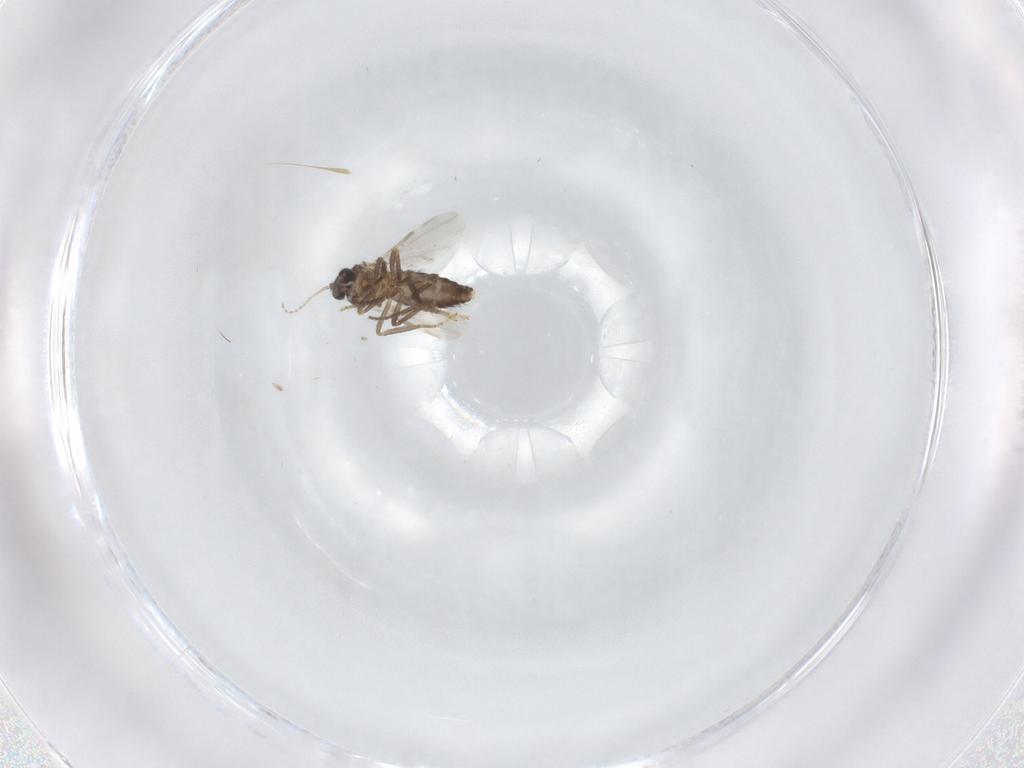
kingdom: Animalia
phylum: Arthropoda
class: Insecta
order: Diptera
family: Ceratopogonidae
